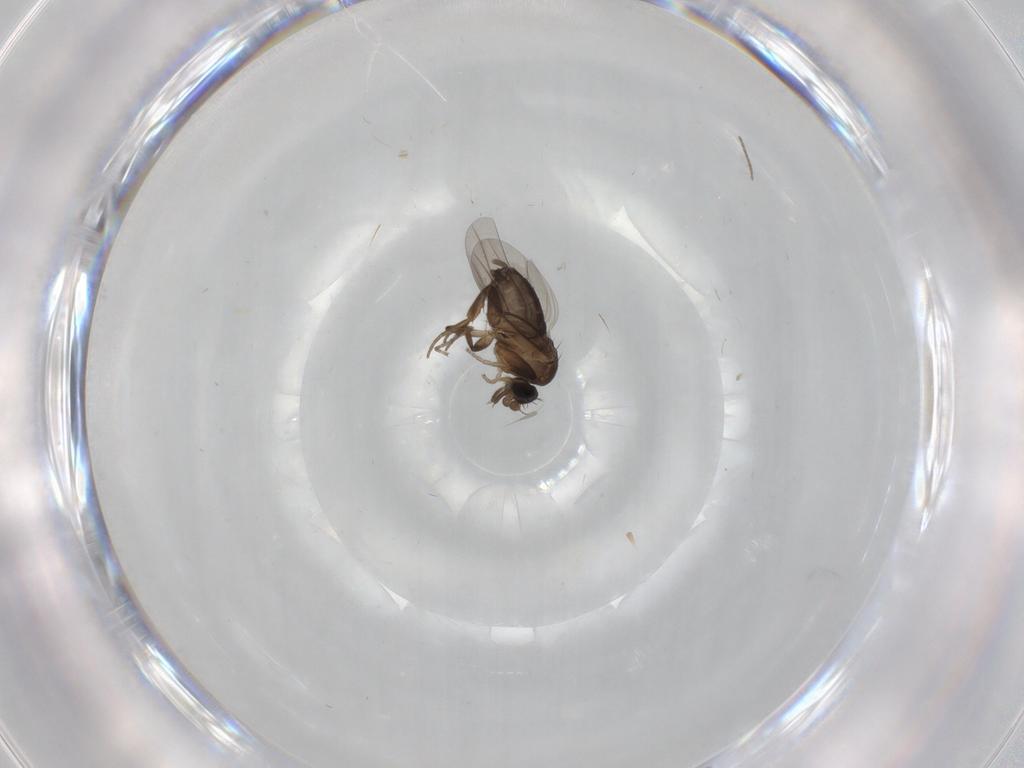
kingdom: Animalia
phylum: Arthropoda
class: Insecta
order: Diptera
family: Phoridae
